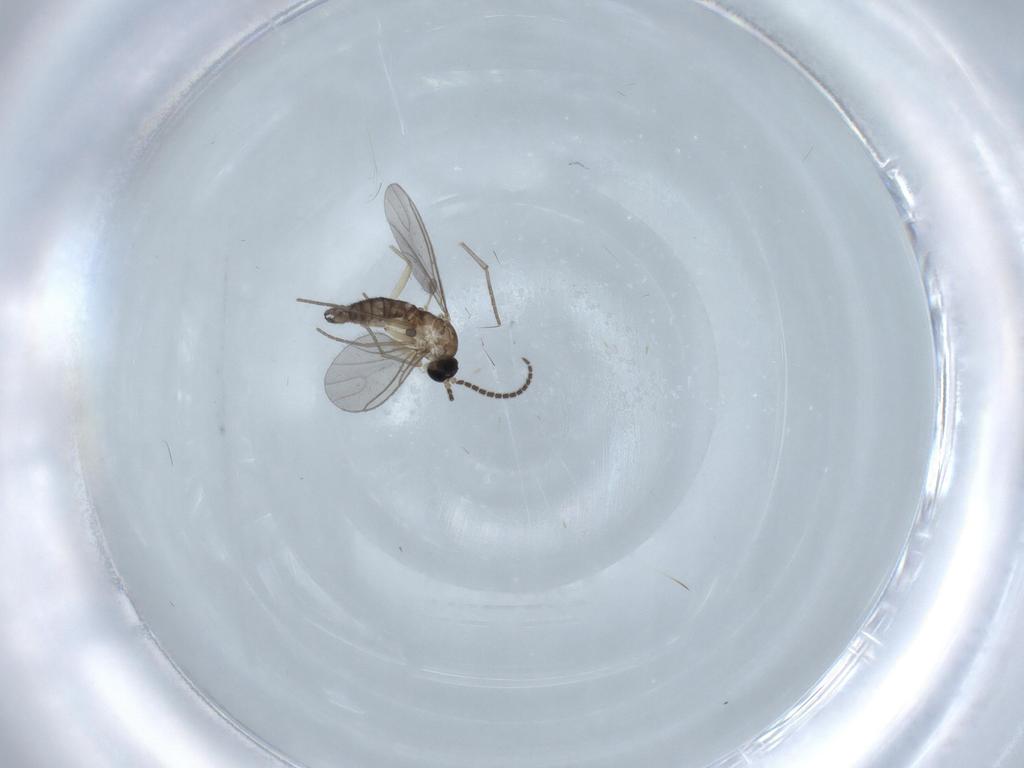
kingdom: Animalia
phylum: Arthropoda
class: Insecta
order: Diptera
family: Sciaridae
